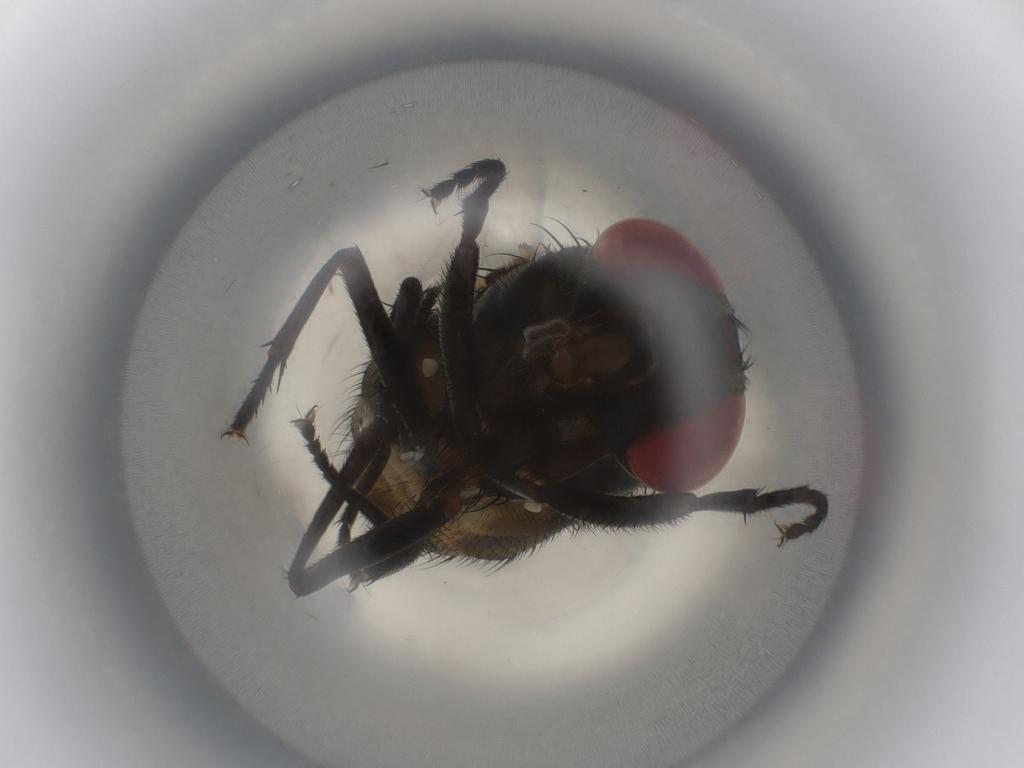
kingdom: Animalia
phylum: Arthropoda
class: Insecta
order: Diptera
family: Muscidae
